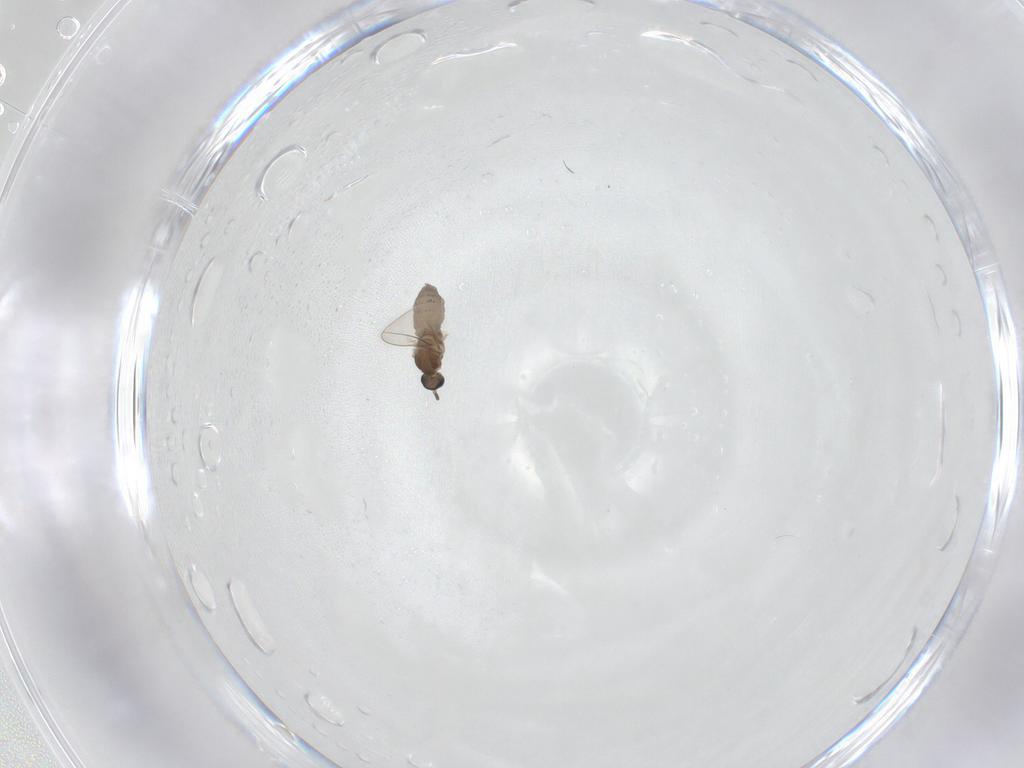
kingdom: Animalia
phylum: Arthropoda
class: Insecta
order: Diptera
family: Cecidomyiidae
